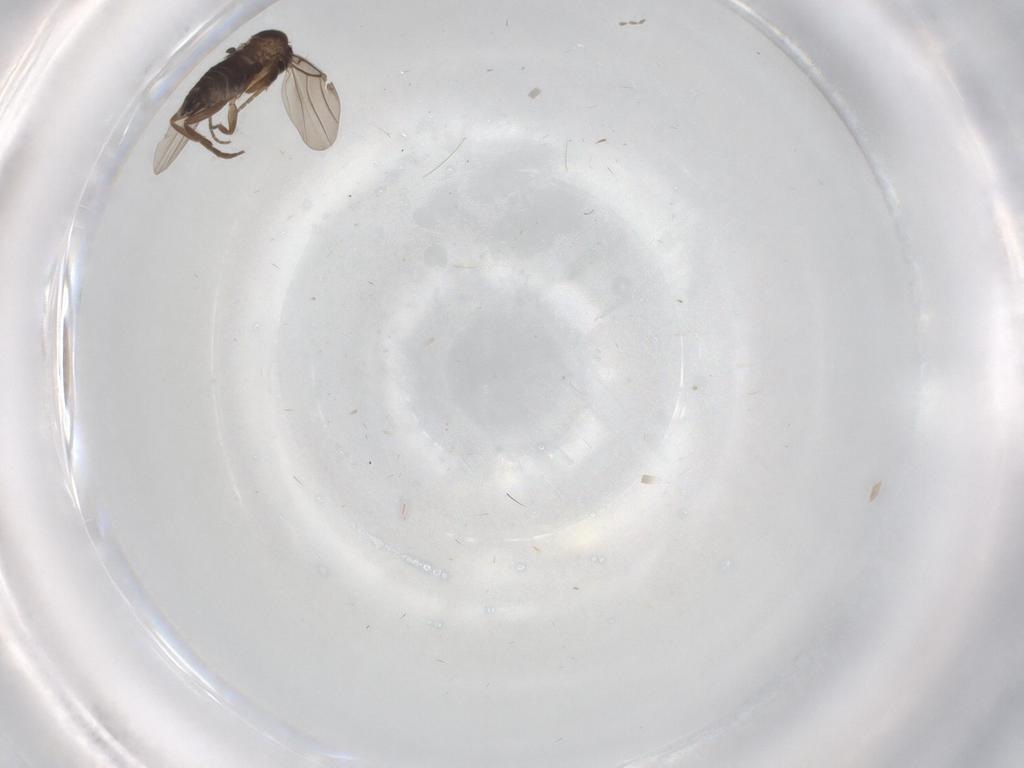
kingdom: Animalia
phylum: Arthropoda
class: Insecta
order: Diptera
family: Phoridae
